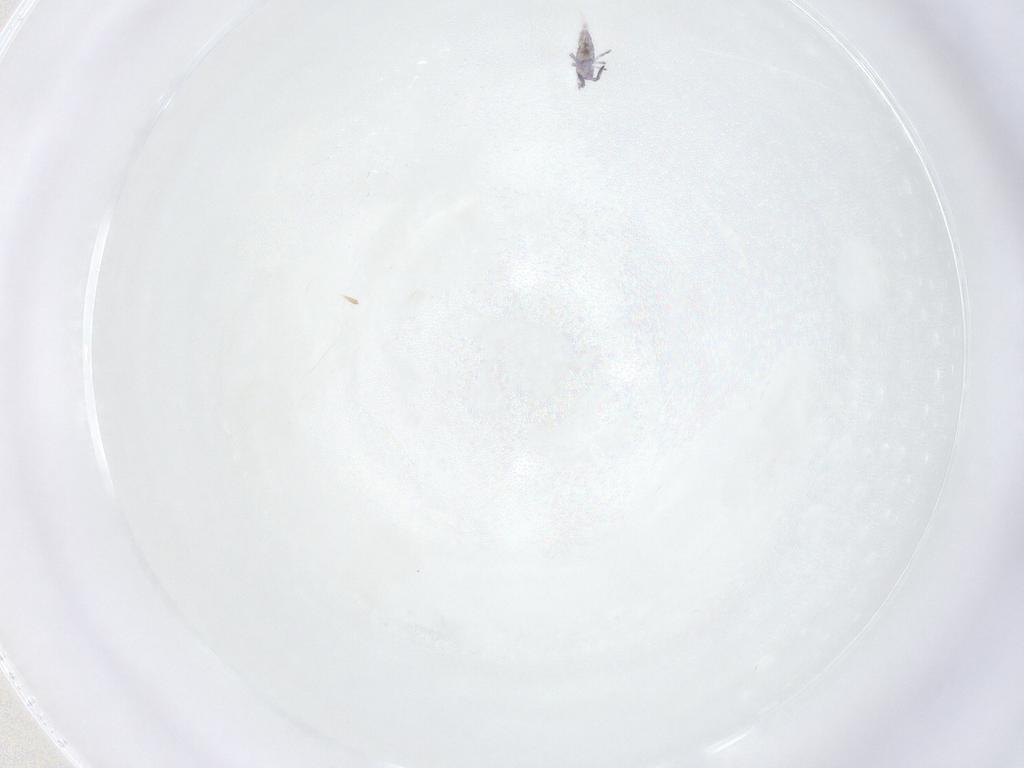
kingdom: Animalia
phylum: Arthropoda
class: Collembola
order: Entomobryomorpha
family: Entomobryidae
